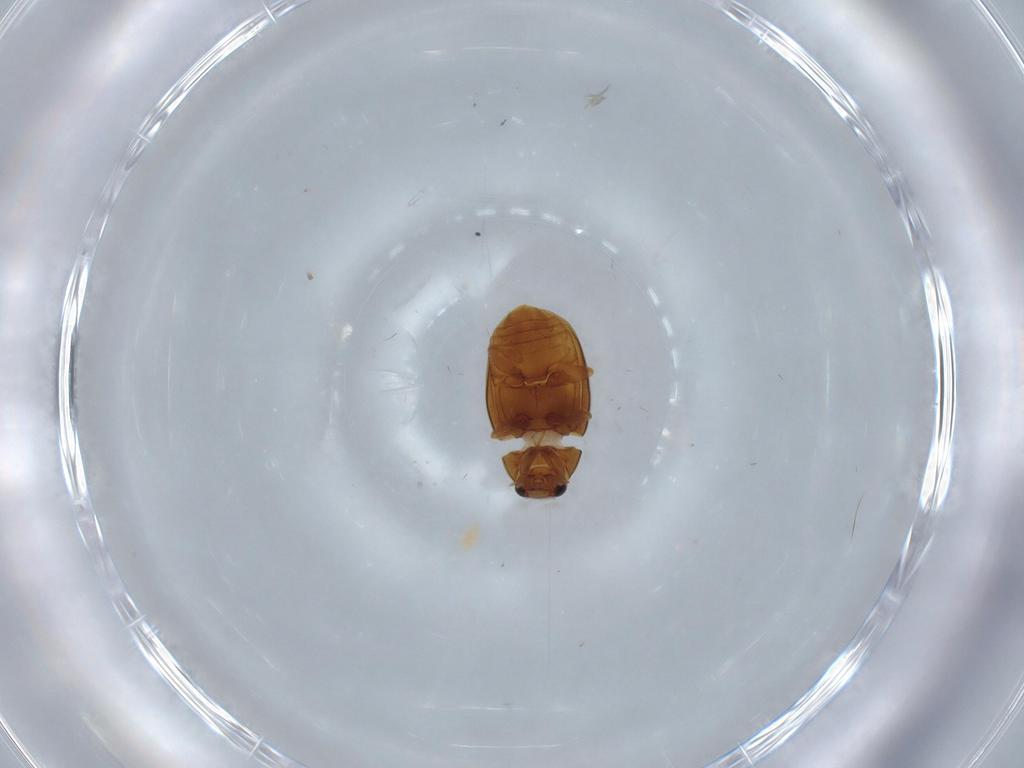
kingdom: Animalia
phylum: Arthropoda
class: Insecta
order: Coleoptera
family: Coccinellidae
